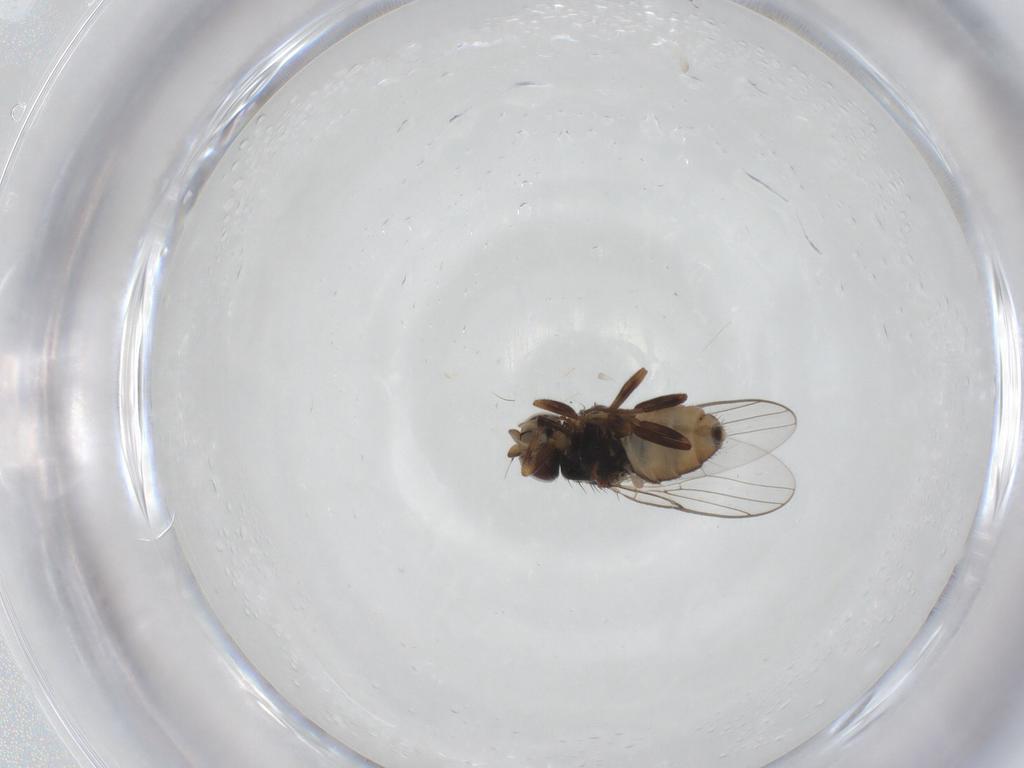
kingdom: Animalia
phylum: Arthropoda
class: Insecta
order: Diptera
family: Chloropidae
